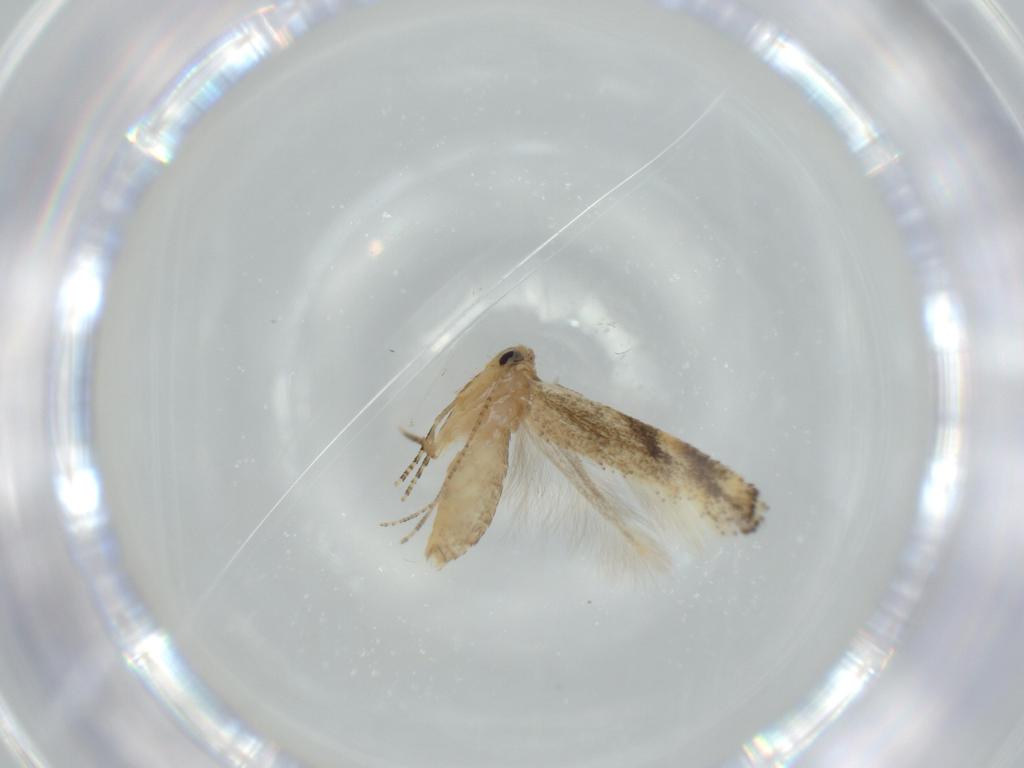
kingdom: Animalia
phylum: Arthropoda
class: Insecta
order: Lepidoptera
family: Bucculatricidae
